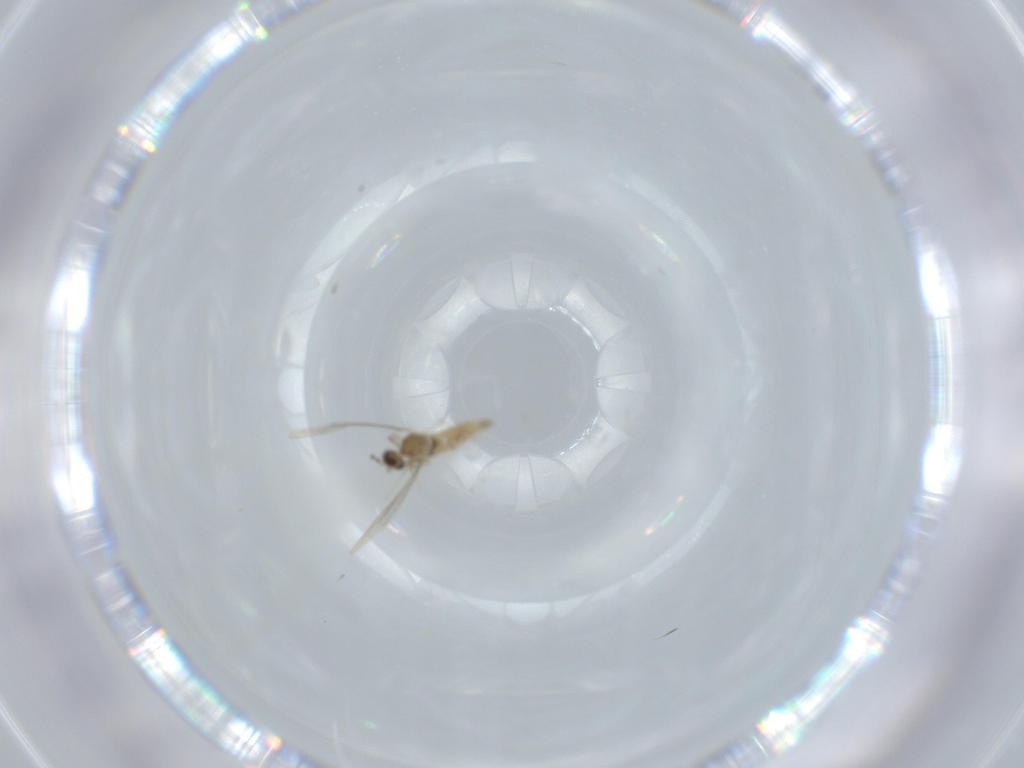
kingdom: Animalia
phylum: Arthropoda
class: Insecta
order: Diptera
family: Cecidomyiidae
